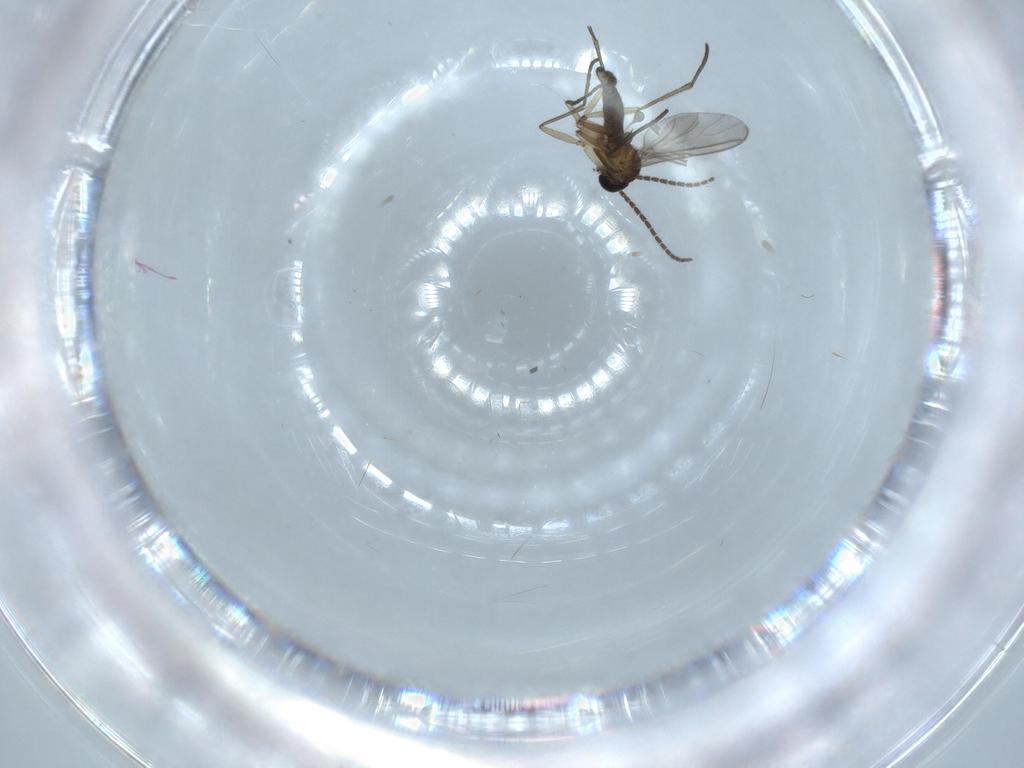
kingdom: Animalia
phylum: Arthropoda
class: Insecta
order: Diptera
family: Sciaridae
